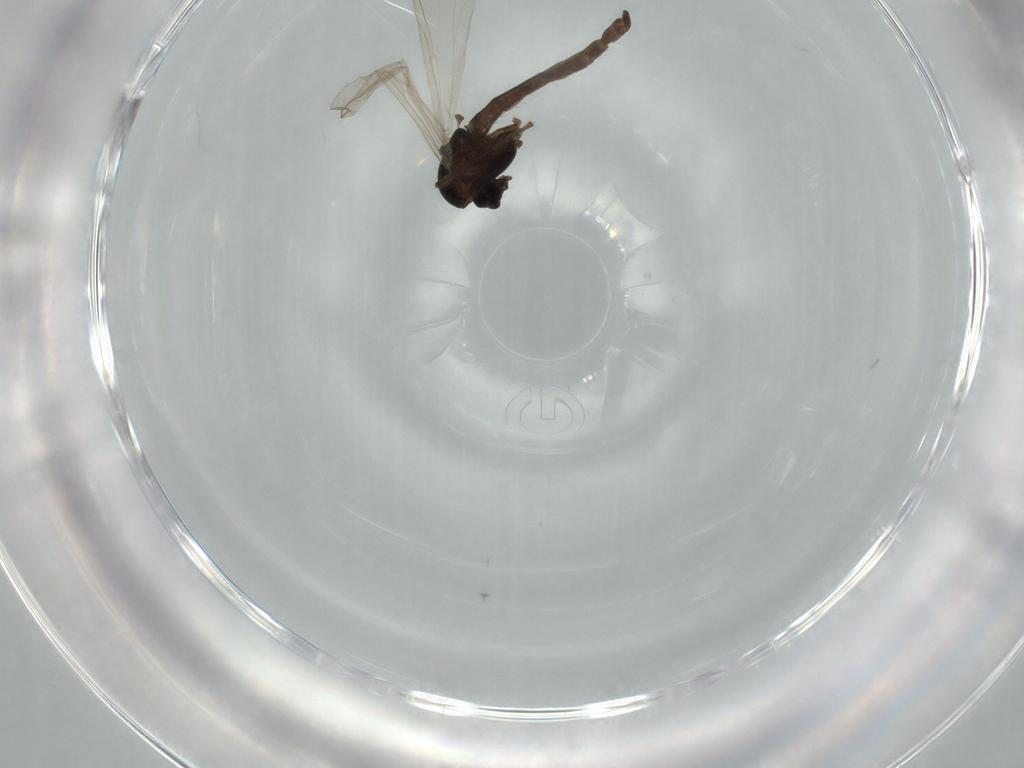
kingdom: Animalia
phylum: Arthropoda
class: Insecta
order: Diptera
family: Chironomidae
